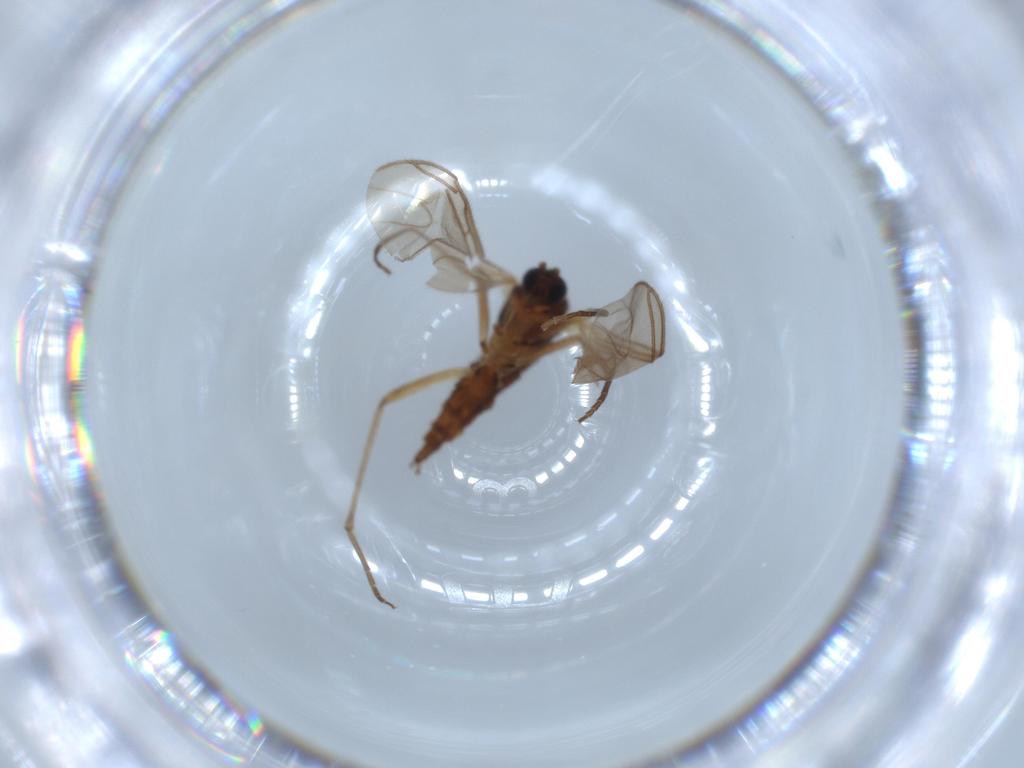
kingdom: Animalia
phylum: Arthropoda
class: Insecta
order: Diptera
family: Sciaridae
